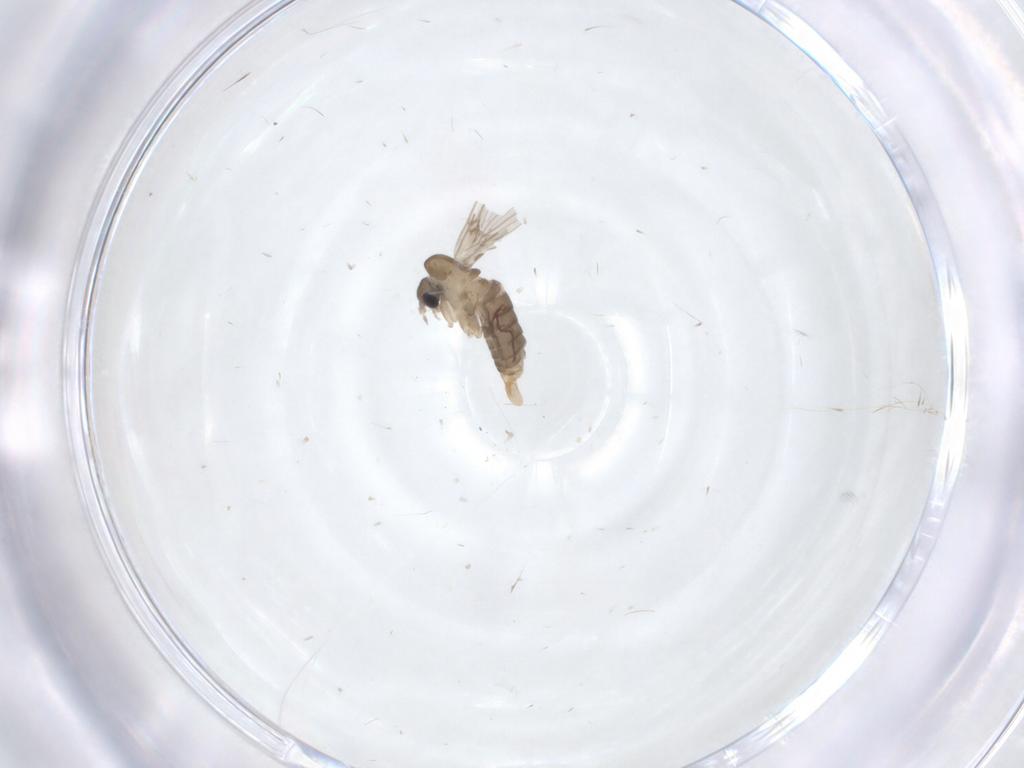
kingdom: Animalia
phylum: Arthropoda
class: Insecta
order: Diptera
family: Psychodidae
